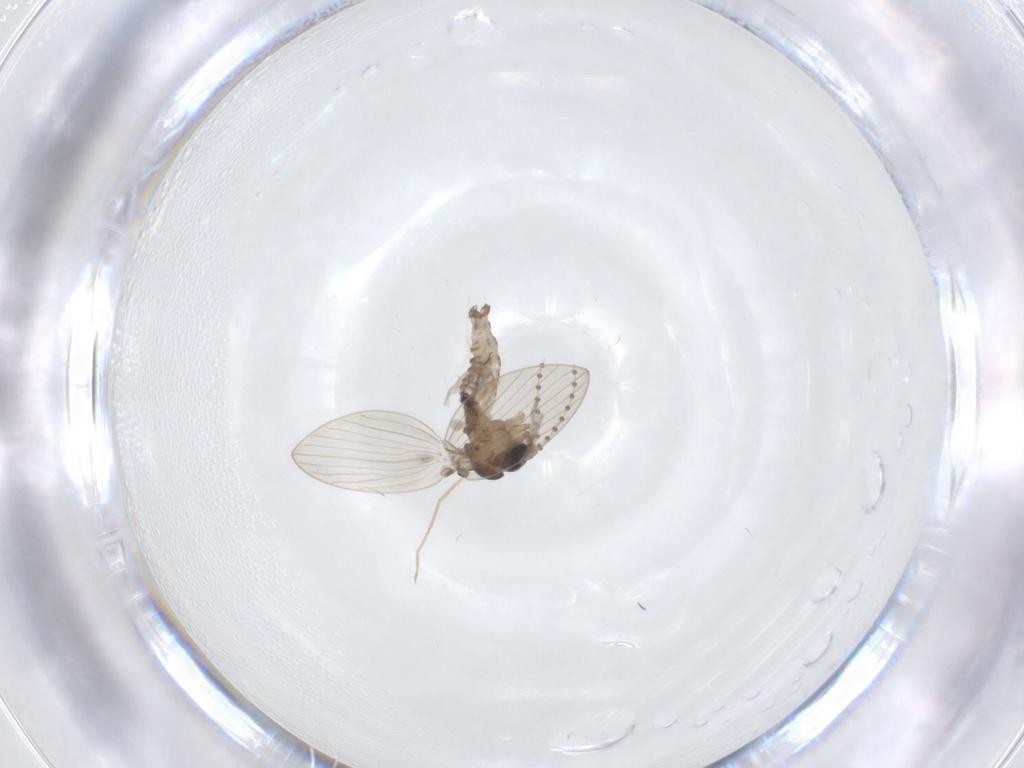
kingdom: Animalia
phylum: Arthropoda
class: Insecta
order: Diptera
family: Psychodidae
